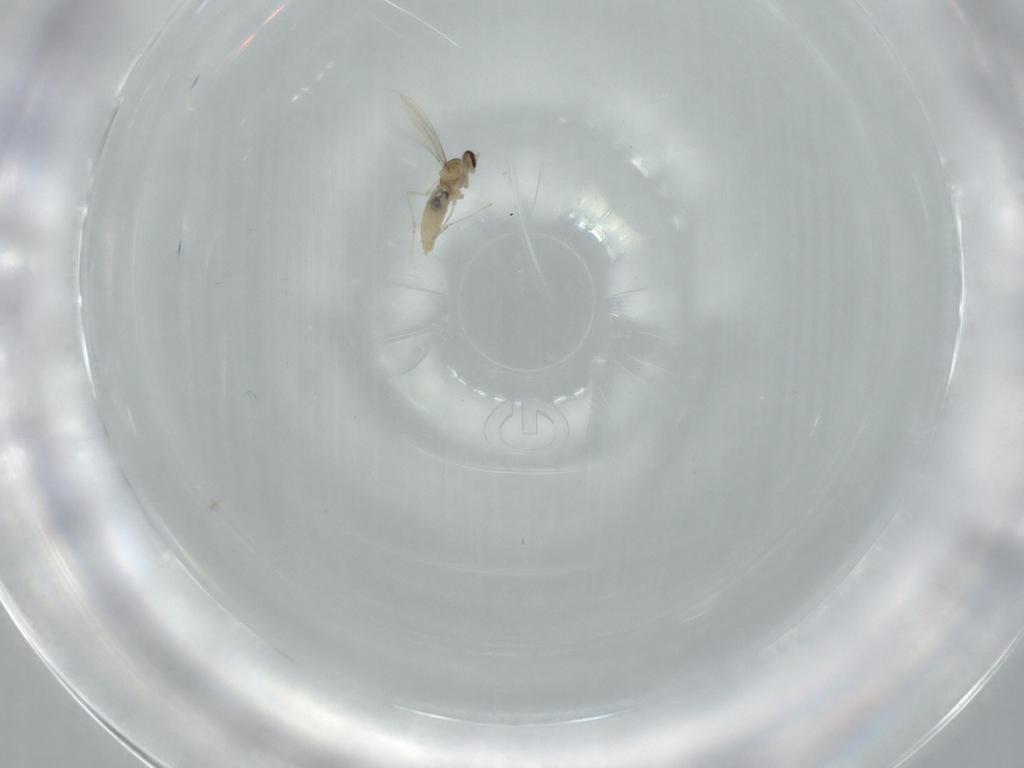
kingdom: Animalia
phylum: Arthropoda
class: Insecta
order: Diptera
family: Cecidomyiidae
